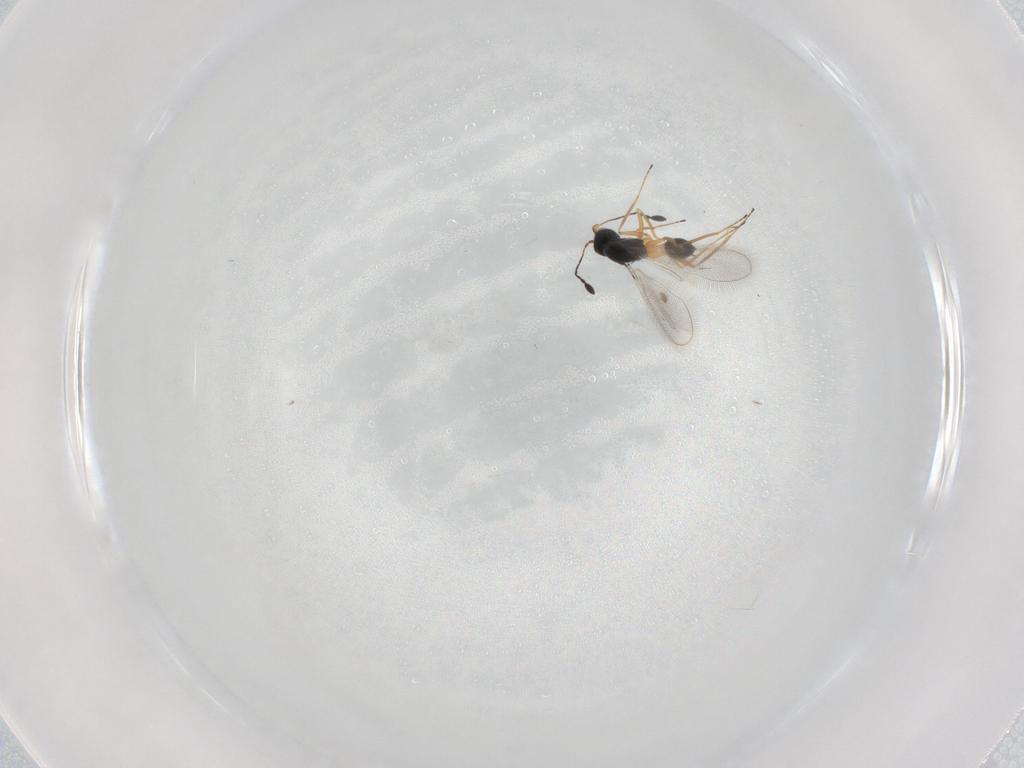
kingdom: Animalia
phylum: Arthropoda
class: Insecta
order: Hymenoptera
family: Mymaridae
